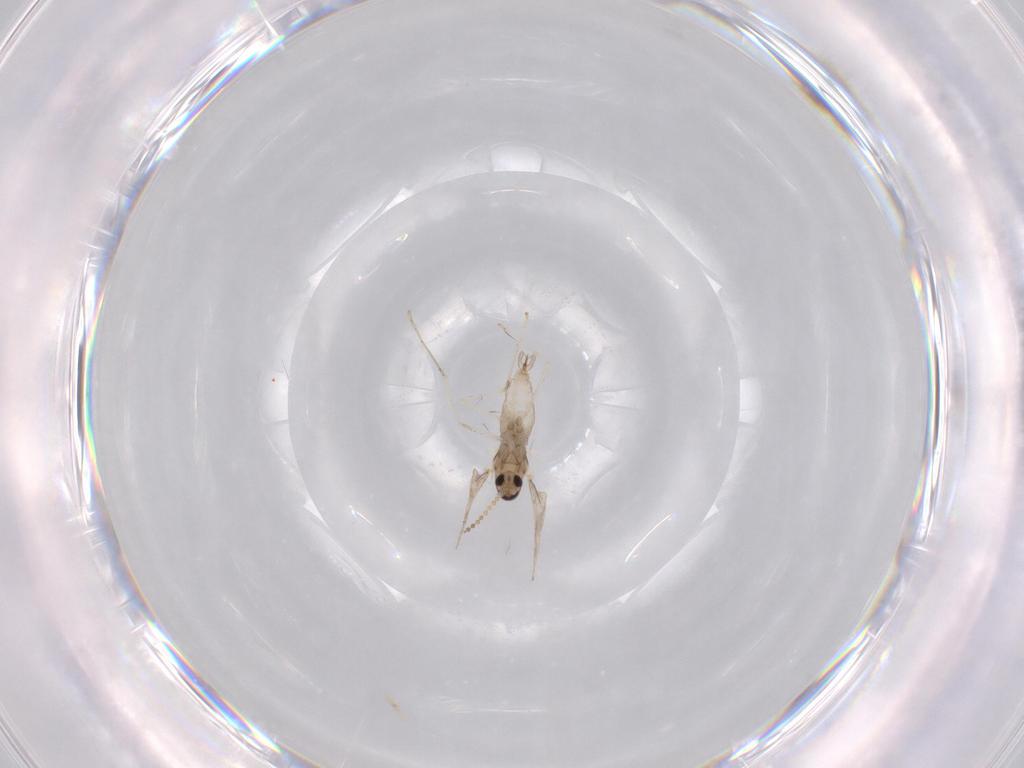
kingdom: Animalia
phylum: Arthropoda
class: Insecta
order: Diptera
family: Cecidomyiidae
